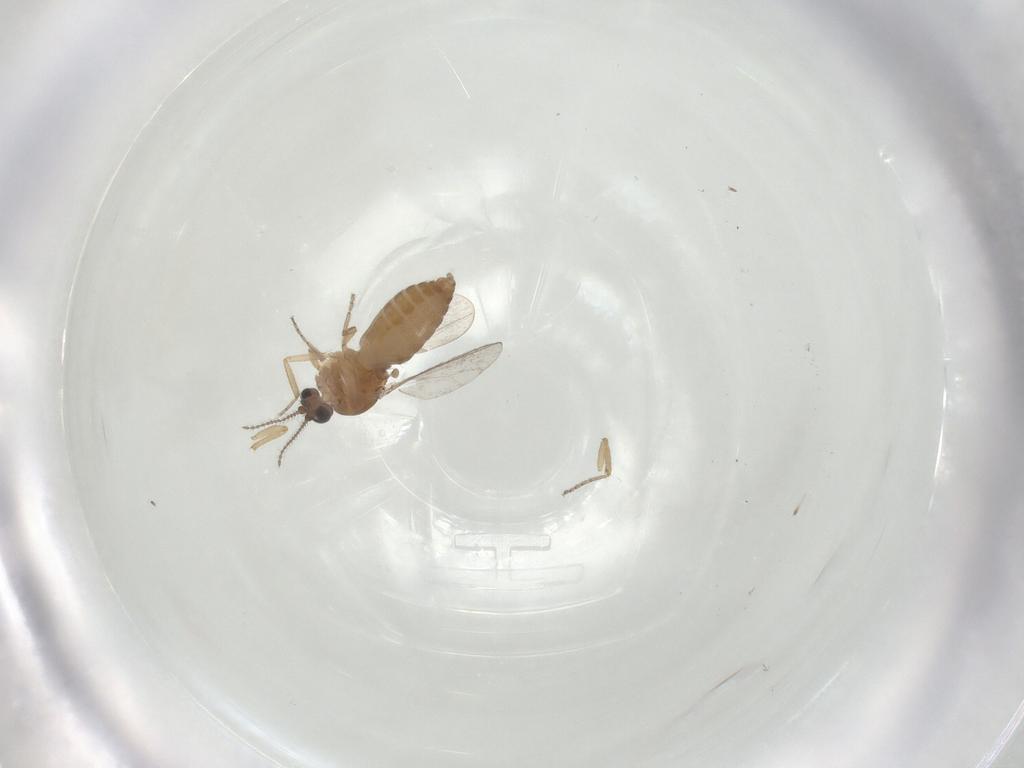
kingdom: Animalia
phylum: Arthropoda
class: Insecta
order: Diptera
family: Ceratopogonidae
